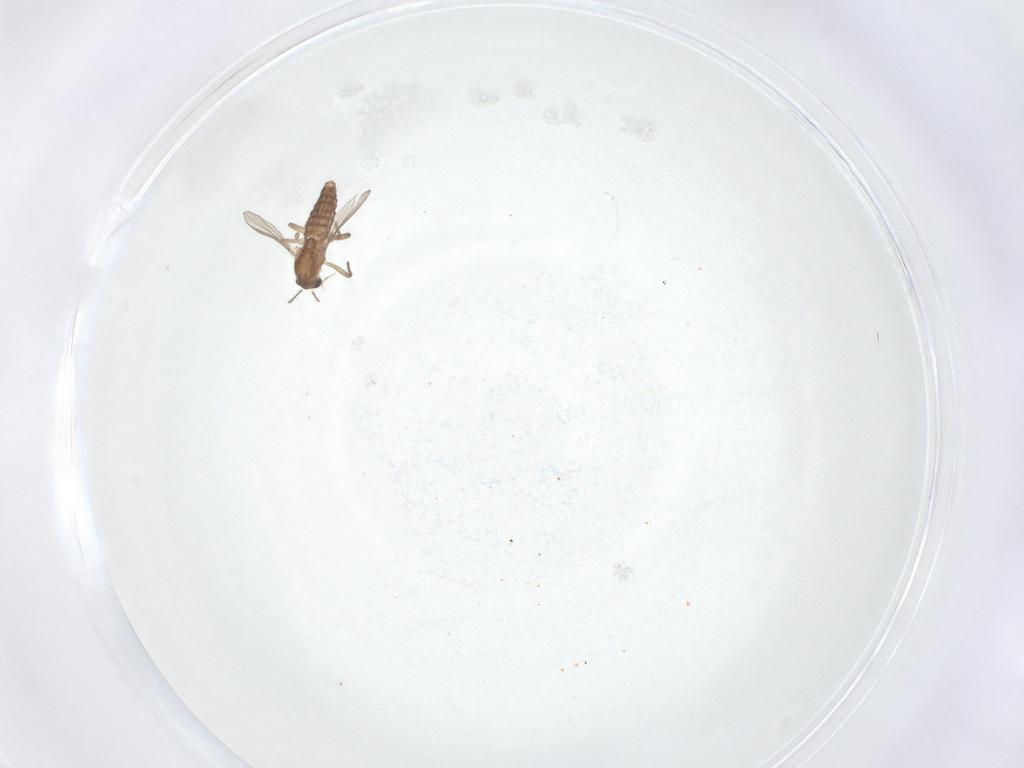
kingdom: Animalia
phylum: Arthropoda
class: Insecta
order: Diptera
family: Chironomidae
